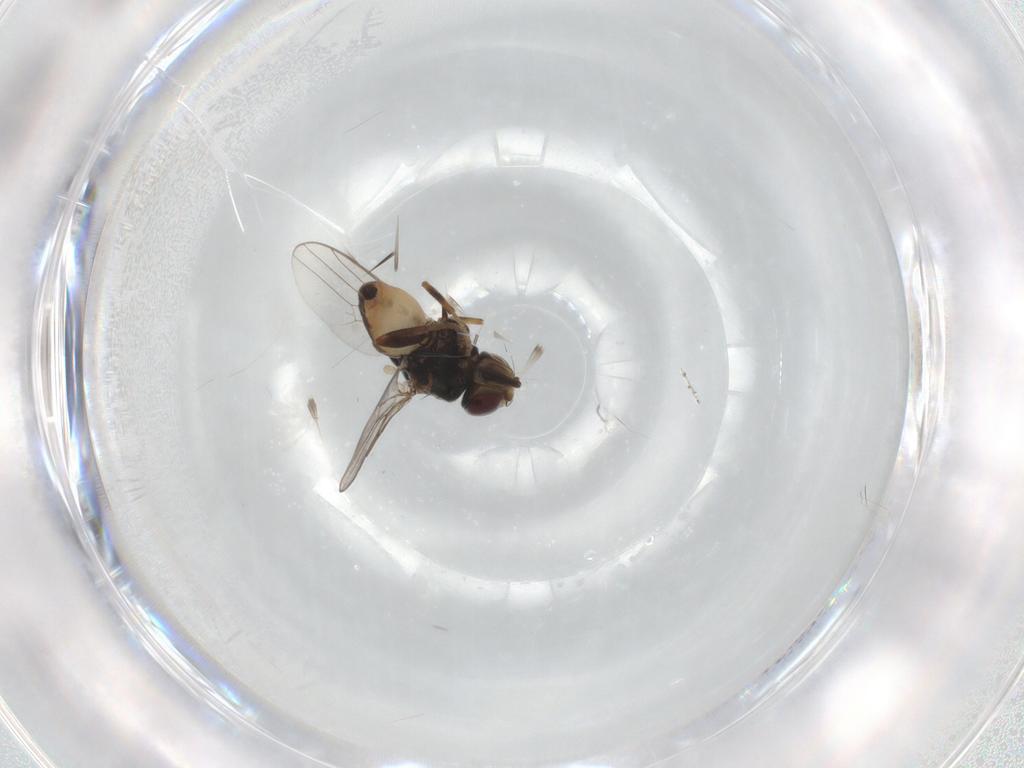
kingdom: Animalia
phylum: Arthropoda
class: Insecta
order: Diptera
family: Chloropidae
